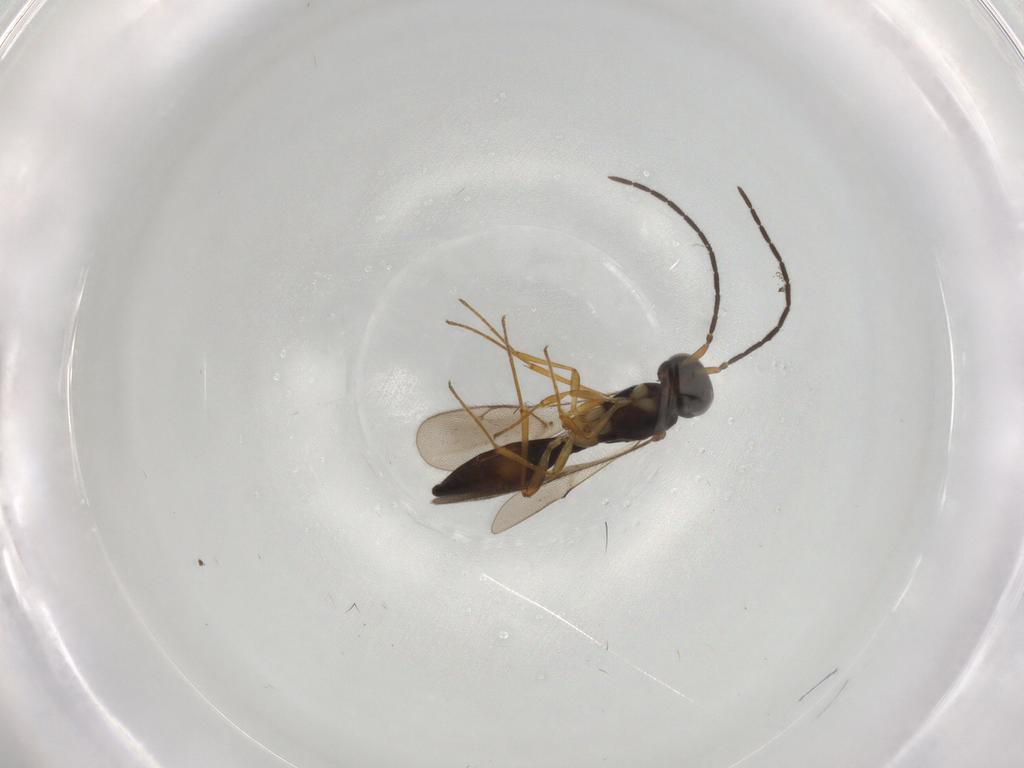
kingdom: Animalia
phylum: Arthropoda
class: Insecta
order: Hymenoptera
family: Scelionidae
